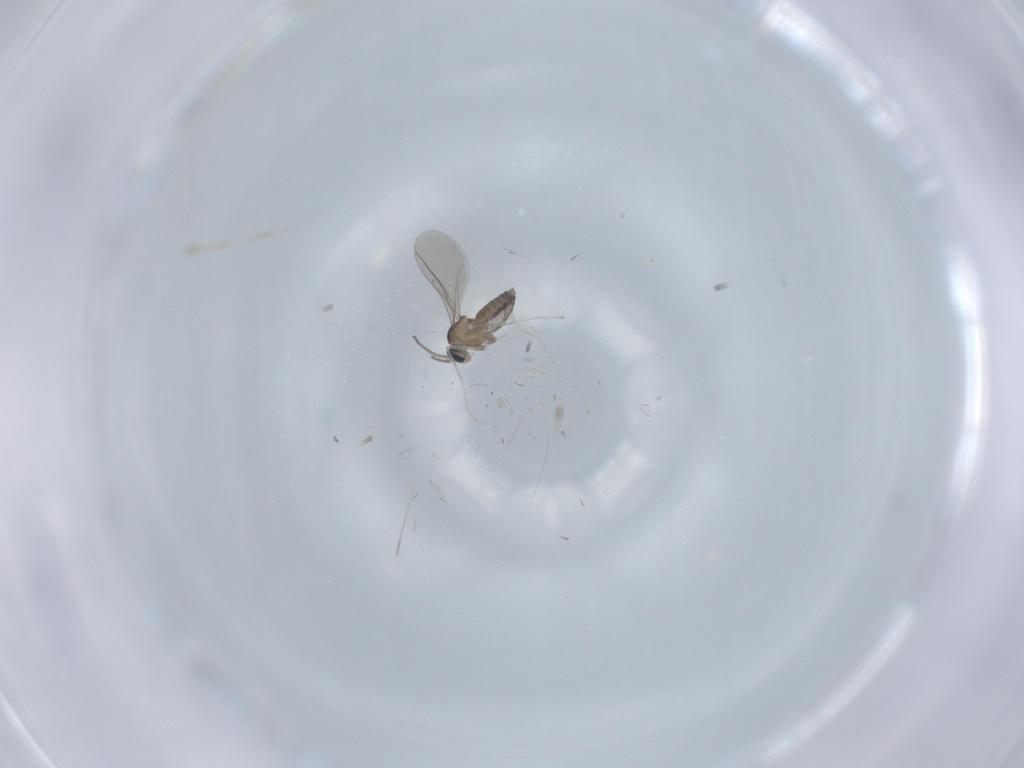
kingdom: Animalia
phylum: Arthropoda
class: Insecta
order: Diptera
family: Cecidomyiidae
